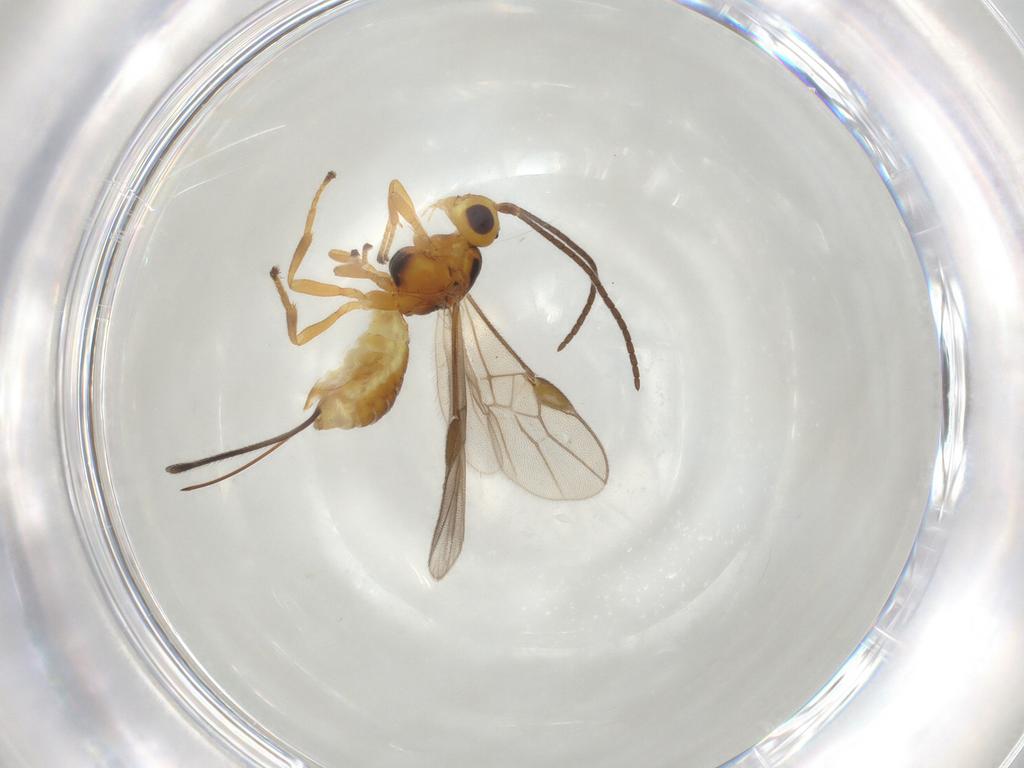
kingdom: Animalia
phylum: Arthropoda
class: Insecta
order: Hymenoptera
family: Braconidae
